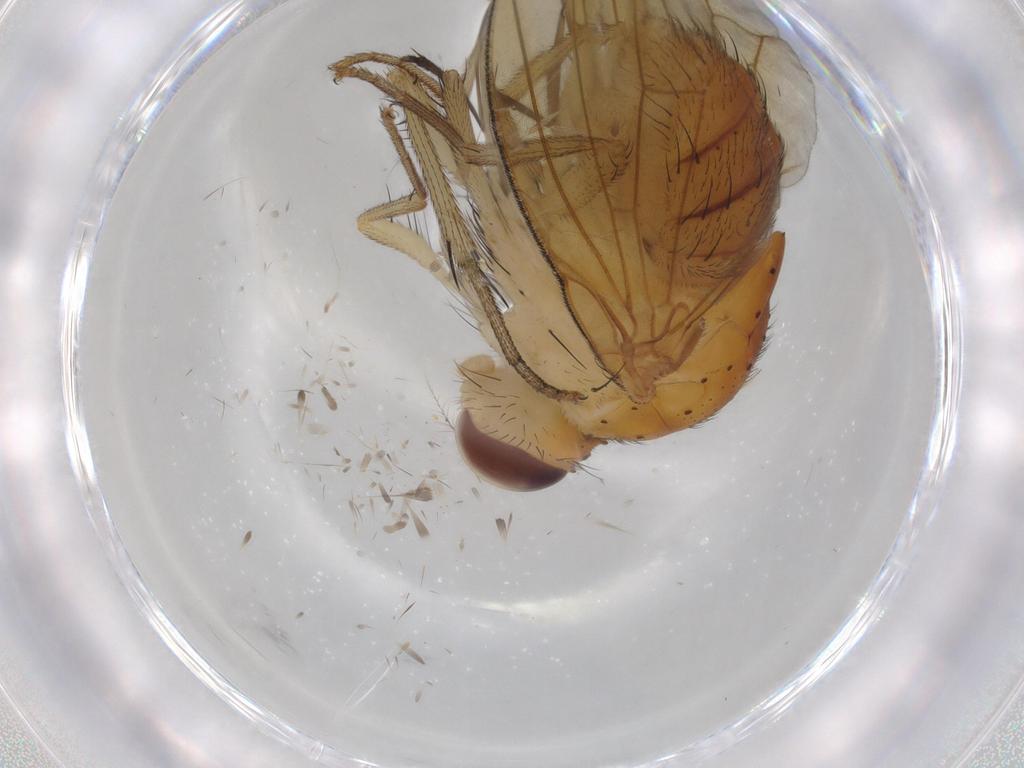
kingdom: Animalia
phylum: Arthropoda
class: Insecta
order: Diptera
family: Phoridae
